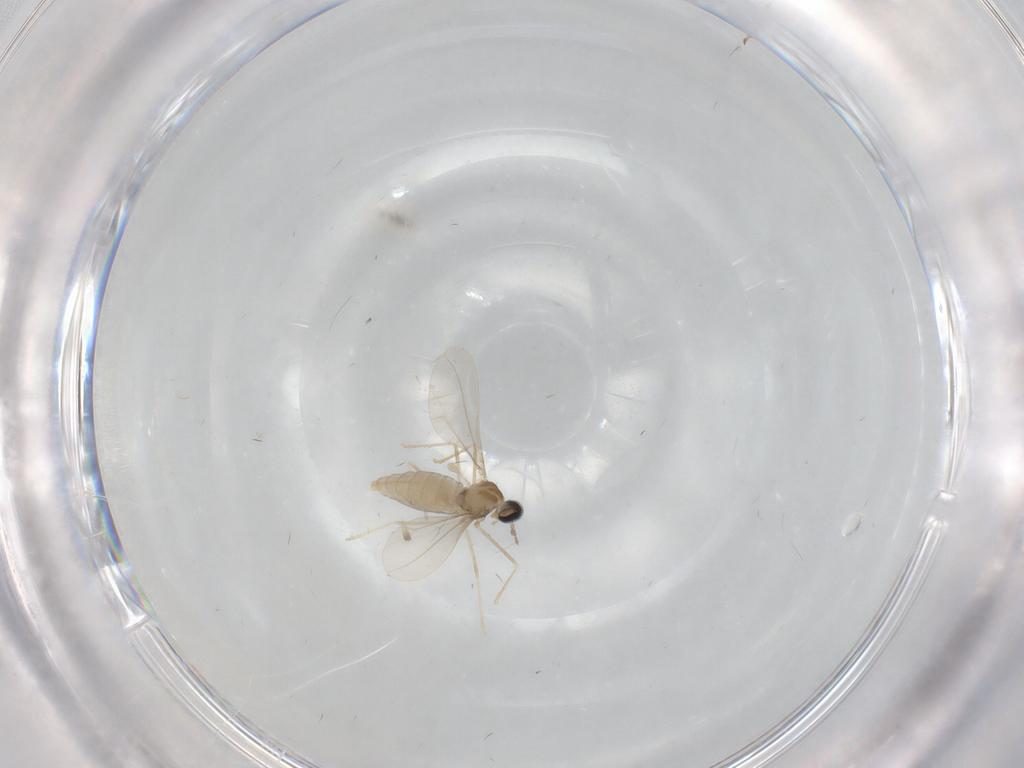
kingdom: Animalia
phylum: Arthropoda
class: Insecta
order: Diptera
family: Cecidomyiidae
